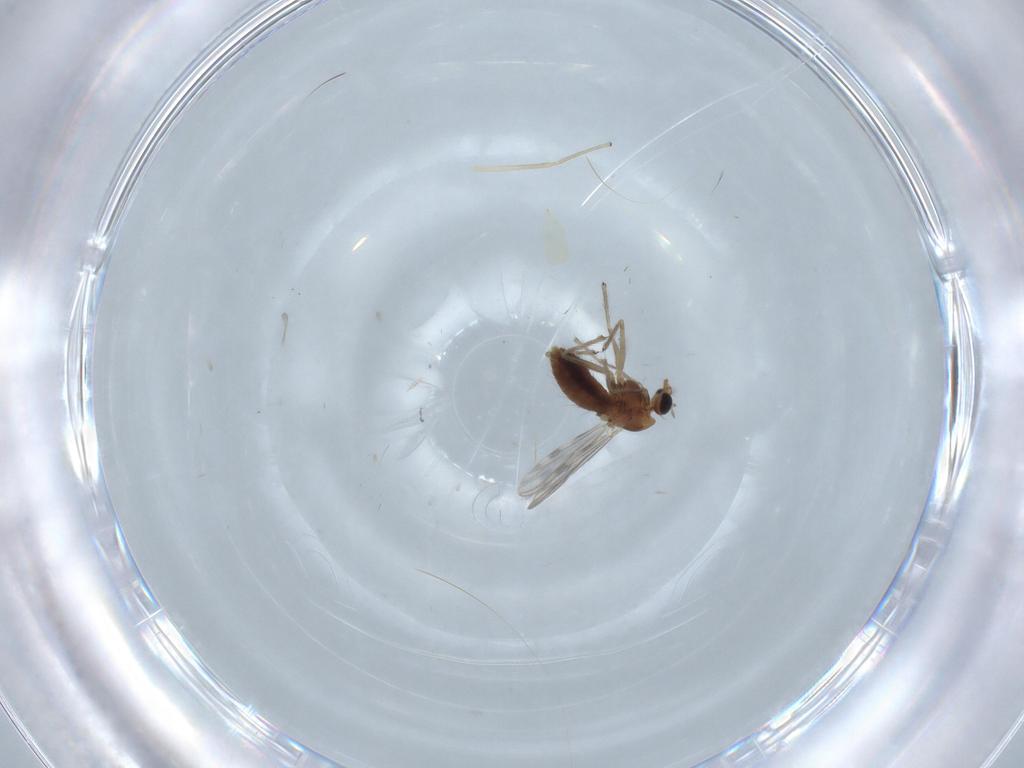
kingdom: Animalia
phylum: Arthropoda
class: Insecta
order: Diptera
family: Chironomidae
